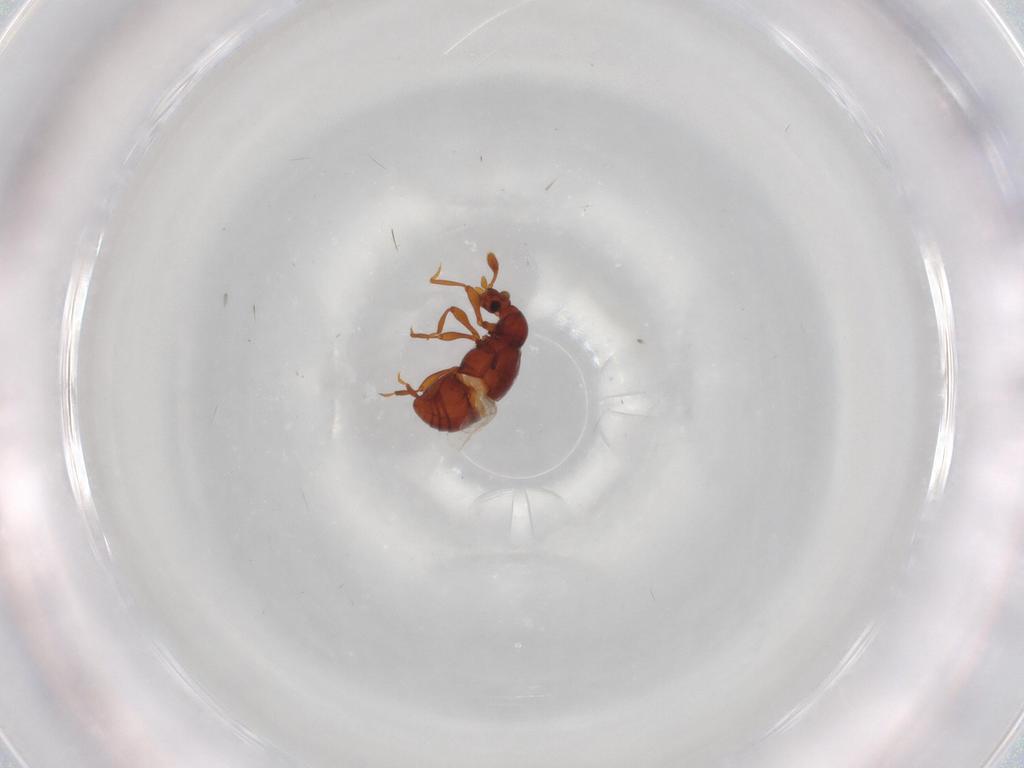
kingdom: Animalia
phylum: Arthropoda
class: Insecta
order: Coleoptera
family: Staphylinidae
